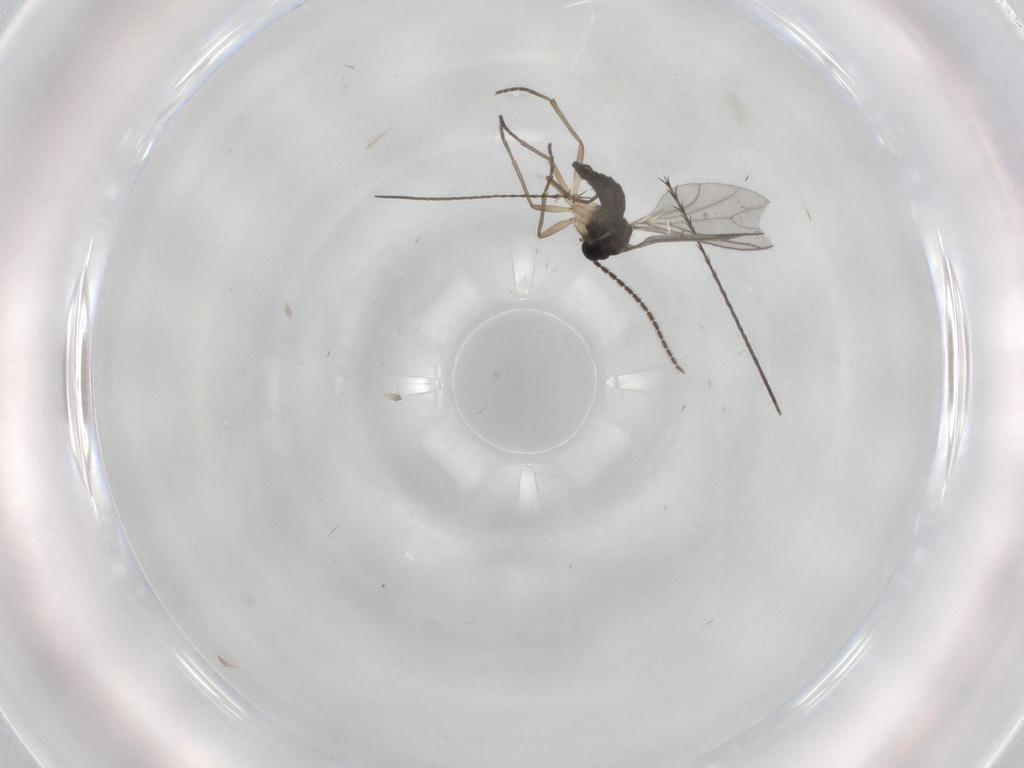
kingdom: Animalia
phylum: Arthropoda
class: Insecta
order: Diptera
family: Sciaridae
